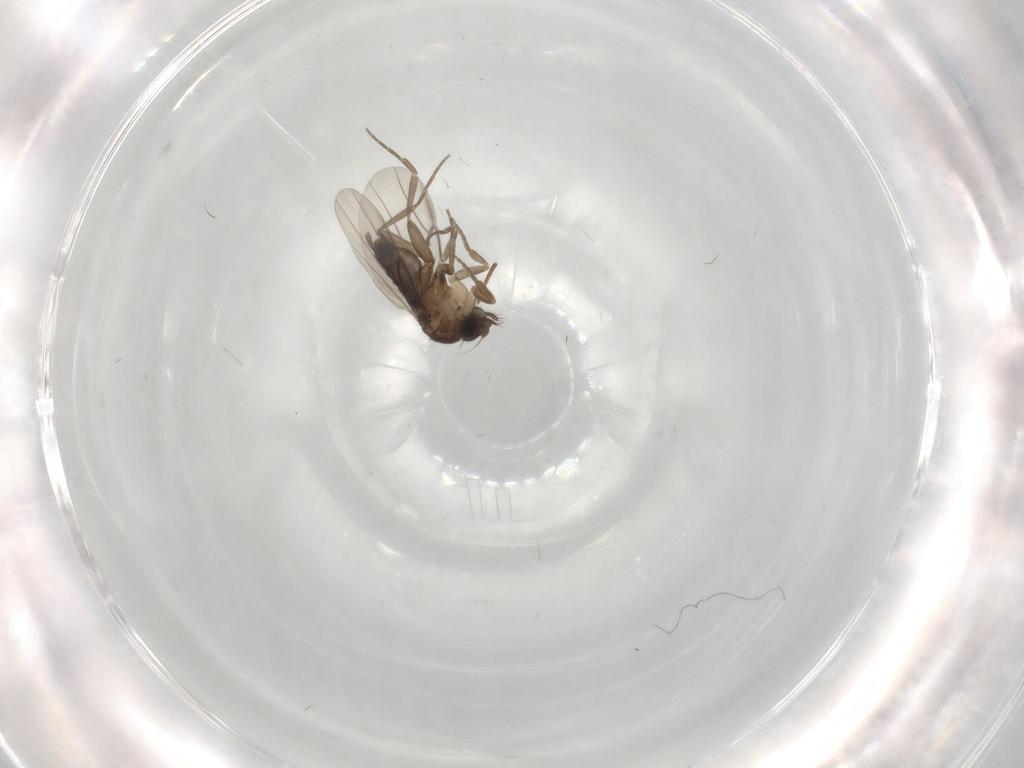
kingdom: Animalia
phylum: Arthropoda
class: Insecta
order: Diptera
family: Phoridae
